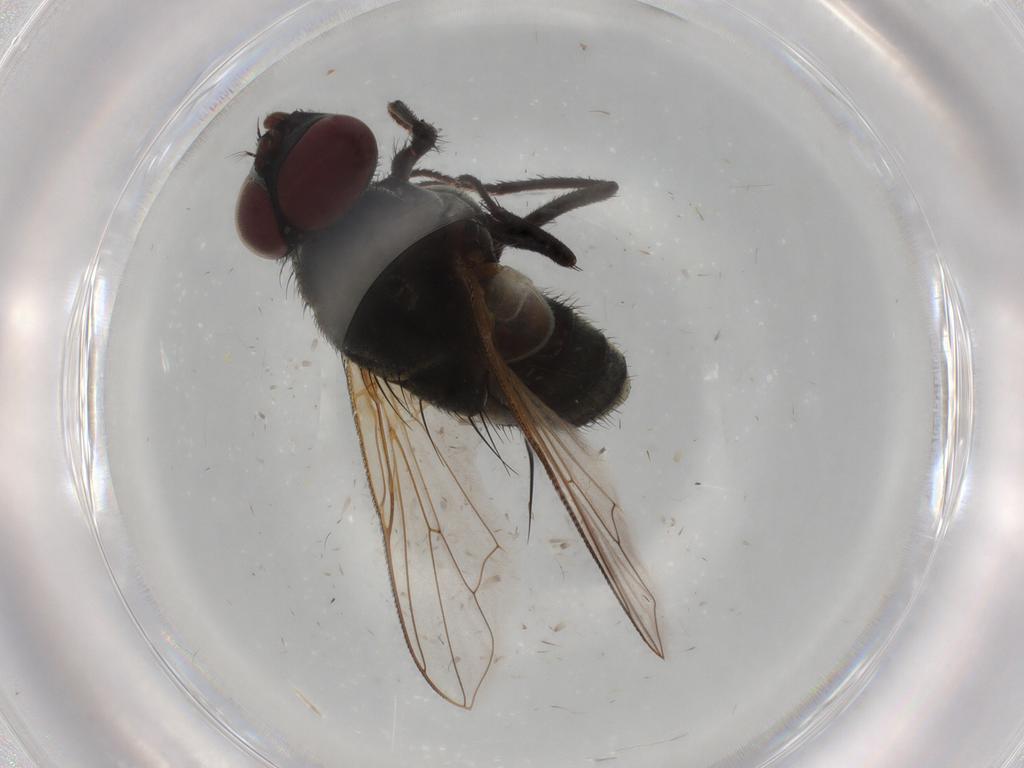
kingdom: Animalia
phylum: Arthropoda
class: Insecta
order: Diptera
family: Muscidae
